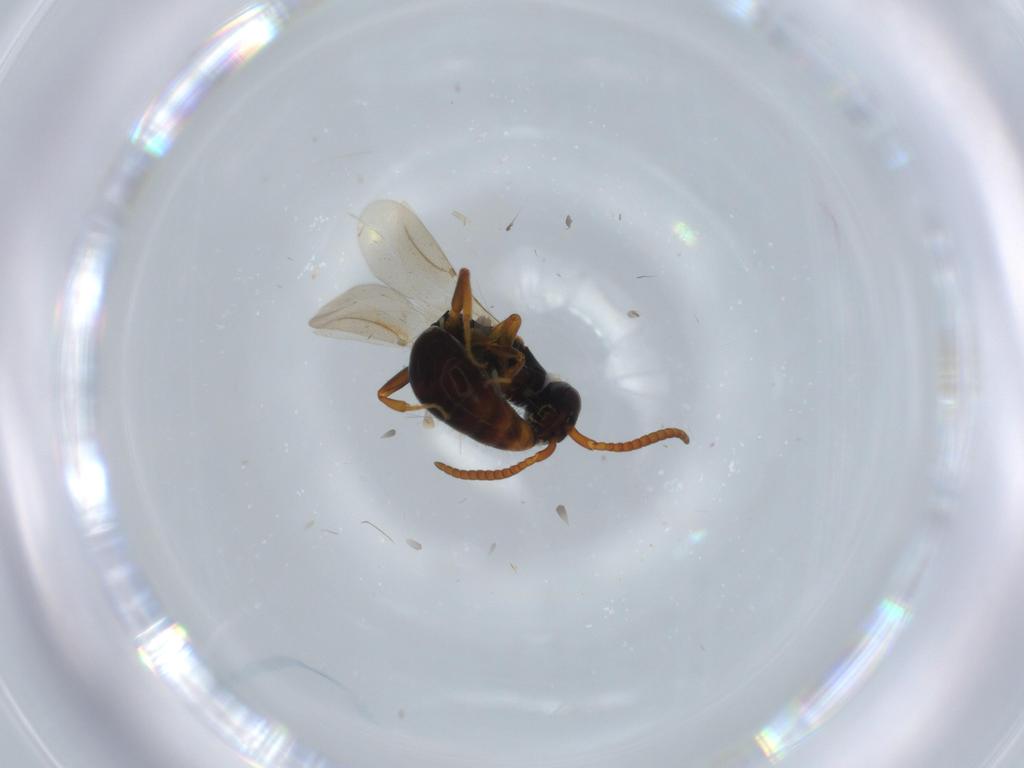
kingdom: Animalia
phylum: Arthropoda
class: Insecta
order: Hymenoptera
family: Bethylidae
